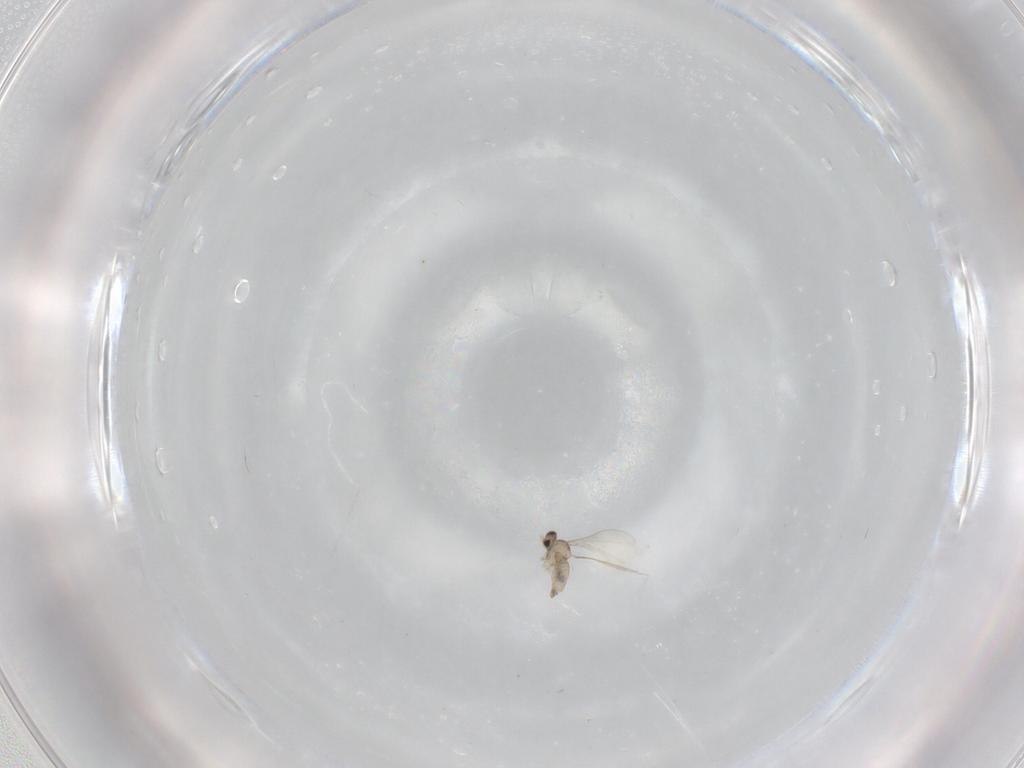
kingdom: Animalia
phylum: Arthropoda
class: Insecta
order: Diptera
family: Cecidomyiidae
